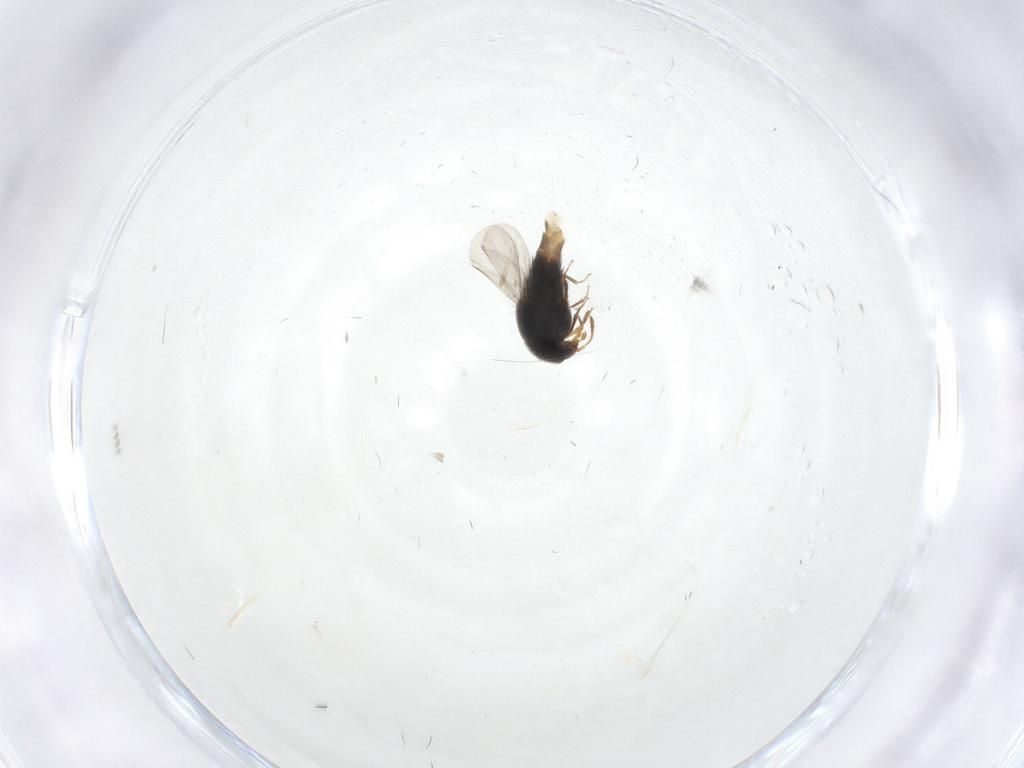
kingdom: Animalia
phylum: Arthropoda
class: Insecta
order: Coleoptera
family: Staphylinidae
